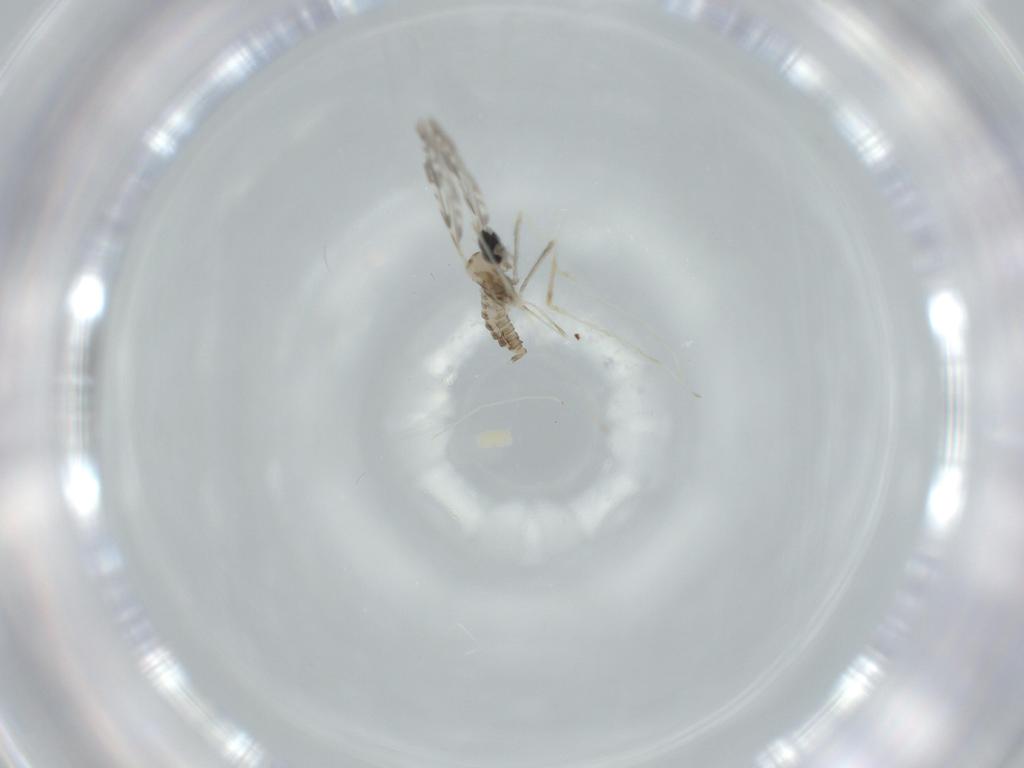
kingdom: Animalia
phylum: Arthropoda
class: Insecta
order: Diptera
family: Cecidomyiidae
